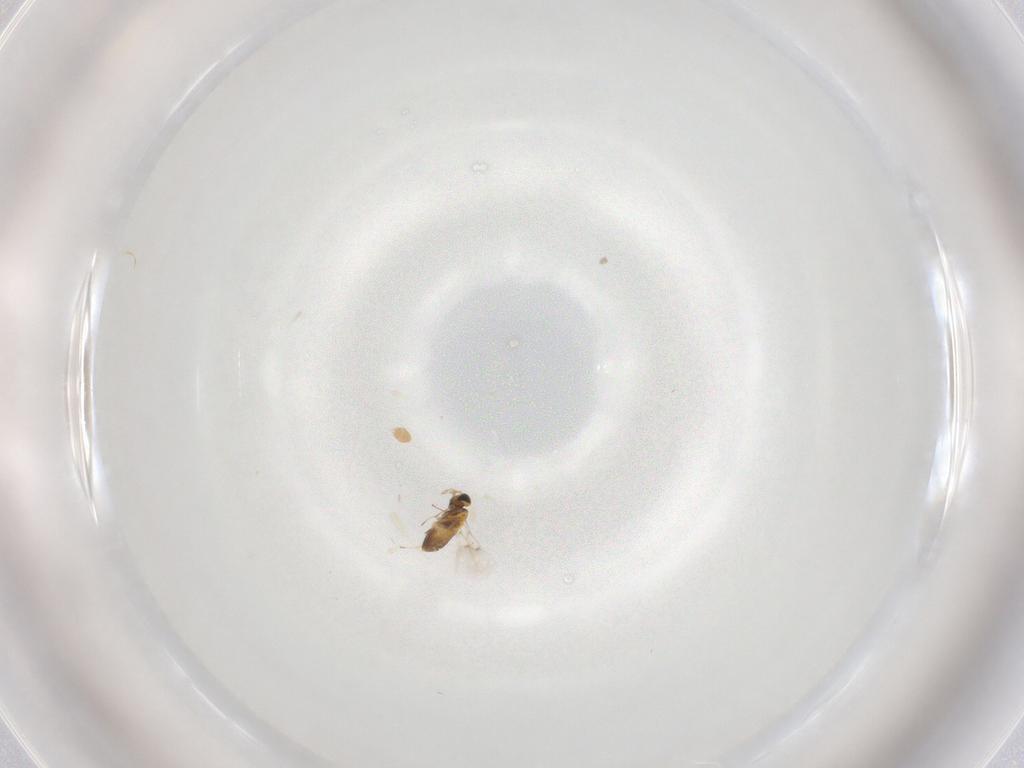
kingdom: Animalia
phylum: Arthropoda
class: Insecta
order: Hymenoptera
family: Trichogrammatidae
